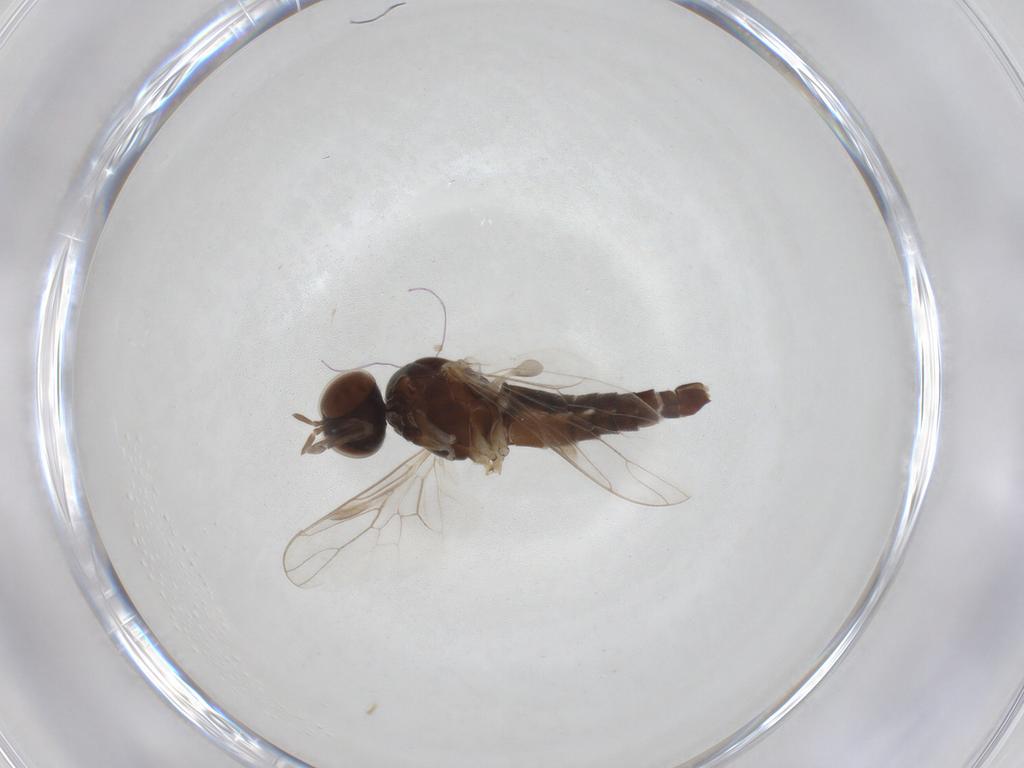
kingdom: Animalia
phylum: Arthropoda
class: Insecta
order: Diptera
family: Scenopinidae
